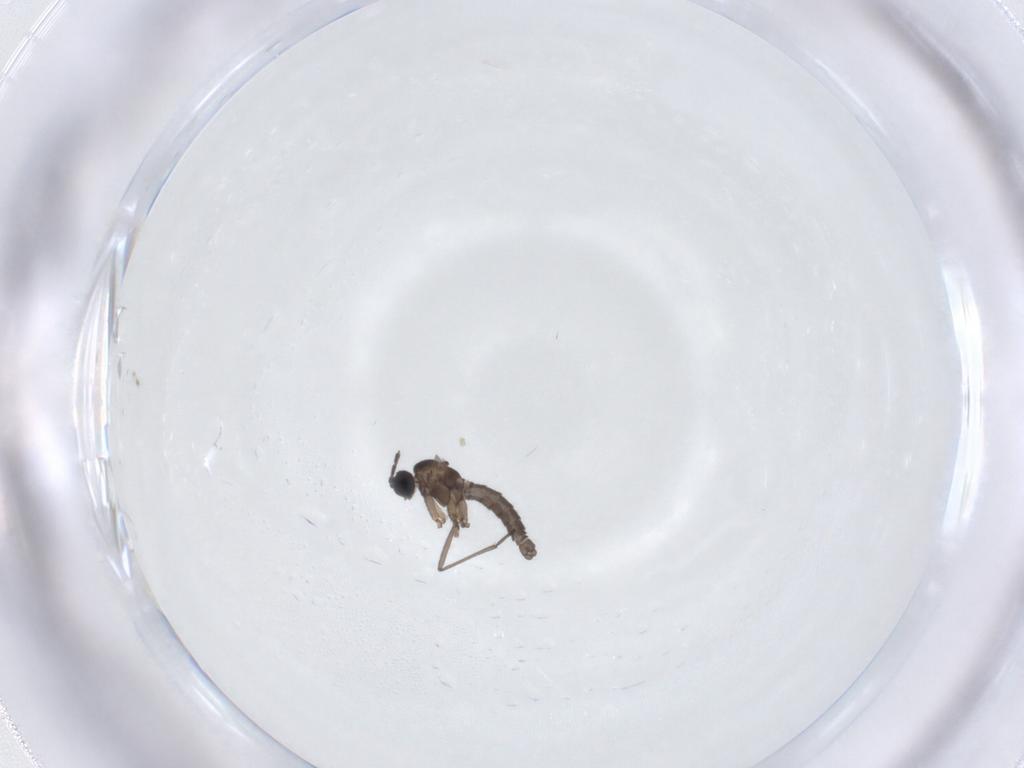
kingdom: Animalia
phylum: Arthropoda
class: Insecta
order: Diptera
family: Sciaridae
